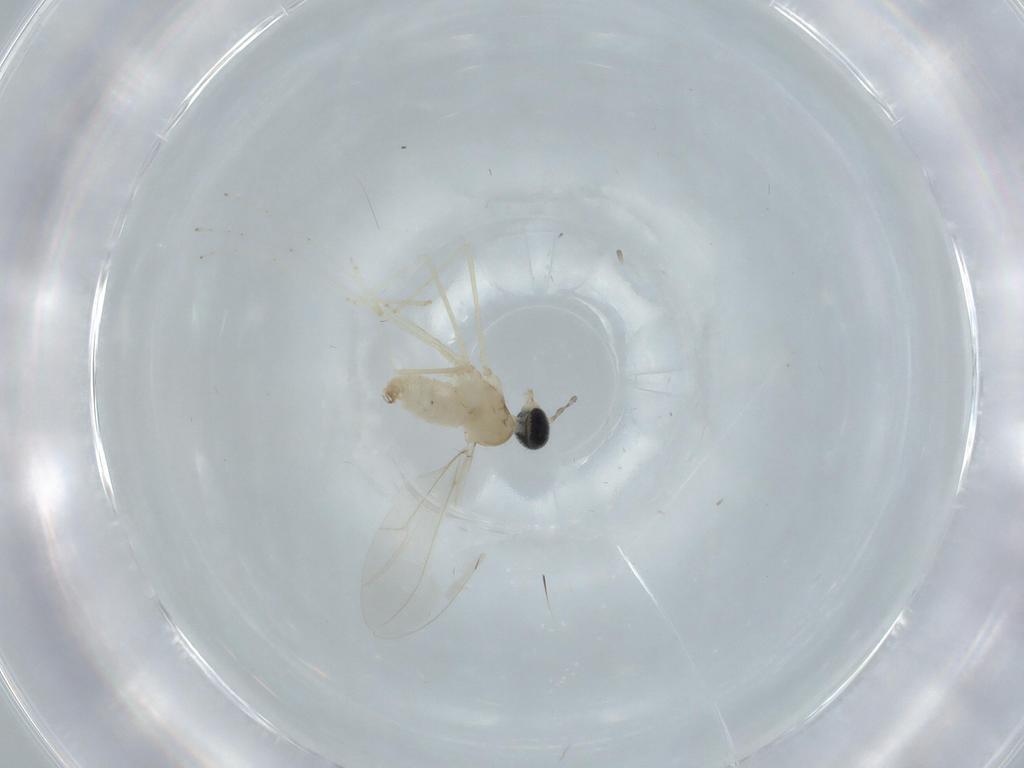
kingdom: Animalia
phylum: Arthropoda
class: Insecta
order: Diptera
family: Cecidomyiidae
